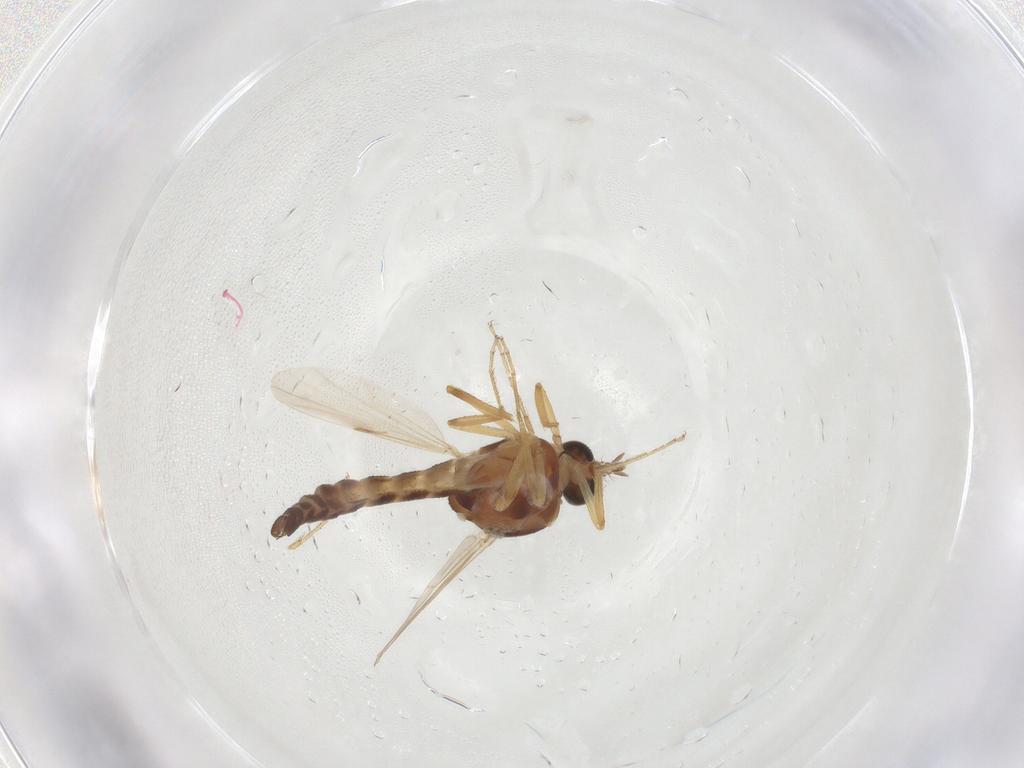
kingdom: Animalia
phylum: Arthropoda
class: Insecta
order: Diptera
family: Ceratopogonidae
